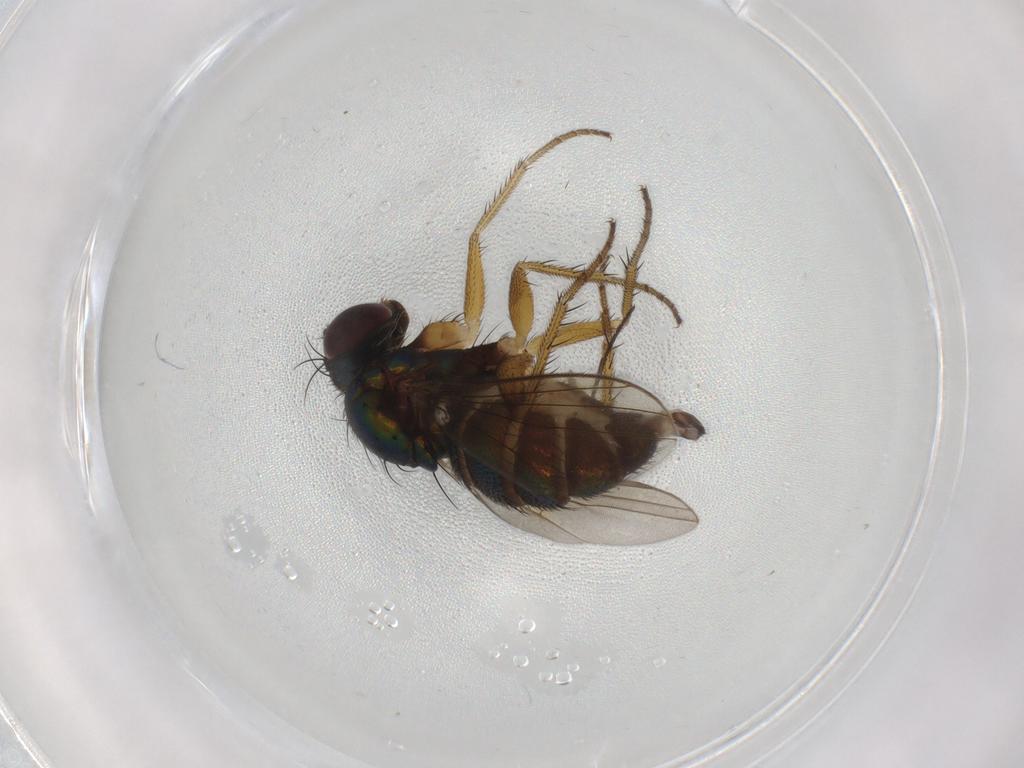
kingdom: Animalia
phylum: Arthropoda
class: Insecta
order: Diptera
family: Dolichopodidae
